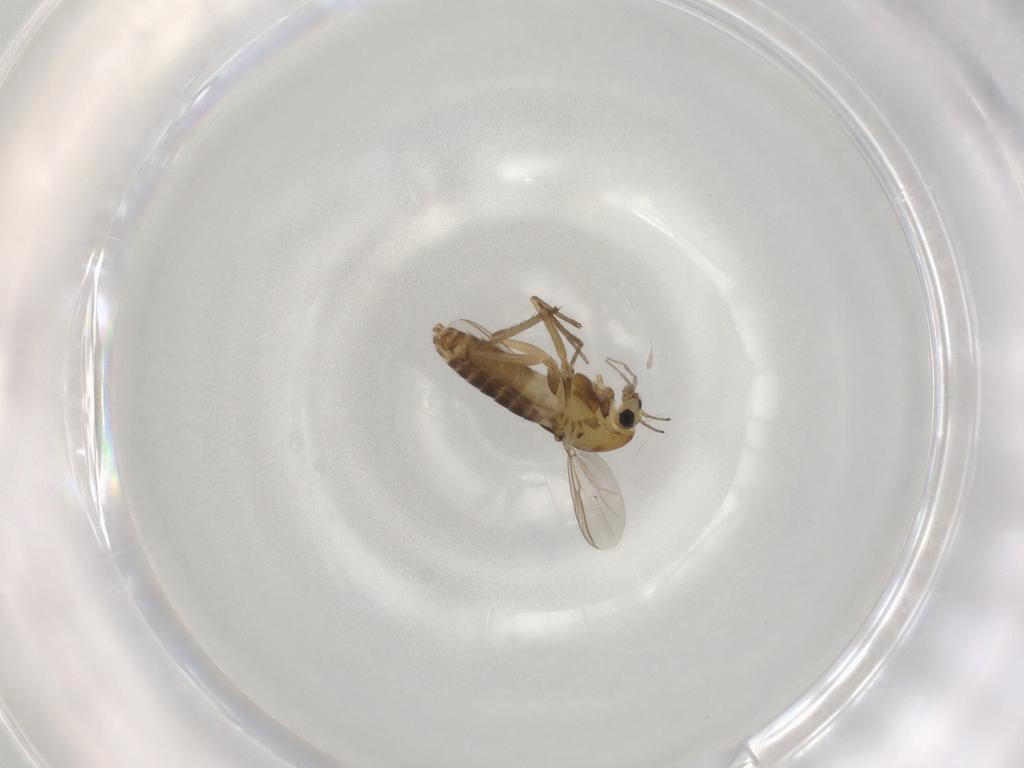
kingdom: Animalia
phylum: Arthropoda
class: Insecta
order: Diptera
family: Chironomidae
